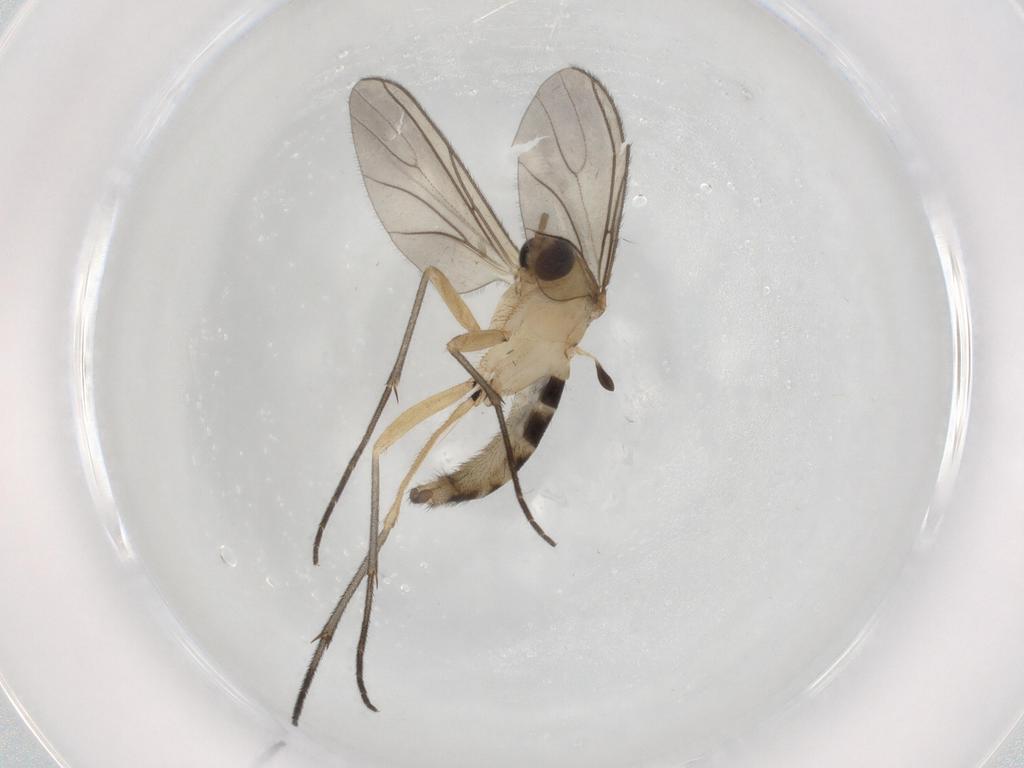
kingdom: Animalia
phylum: Arthropoda
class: Insecta
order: Diptera
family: Sciaridae
